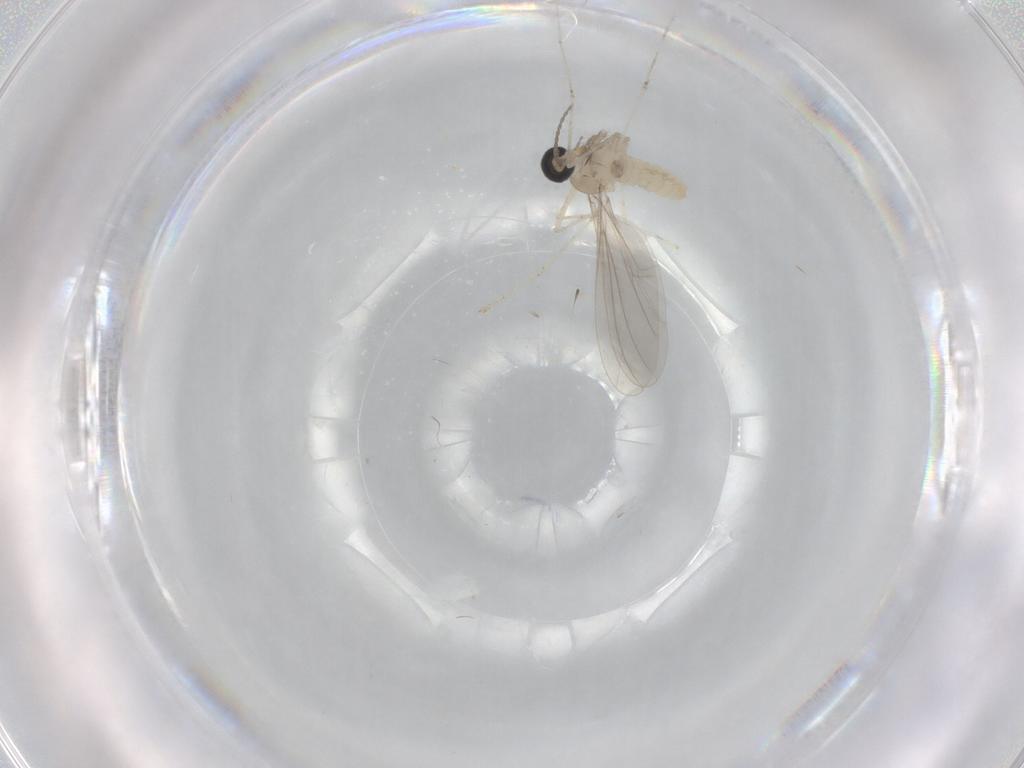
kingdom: Animalia
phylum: Arthropoda
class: Insecta
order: Diptera
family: Cecidomyiidae
